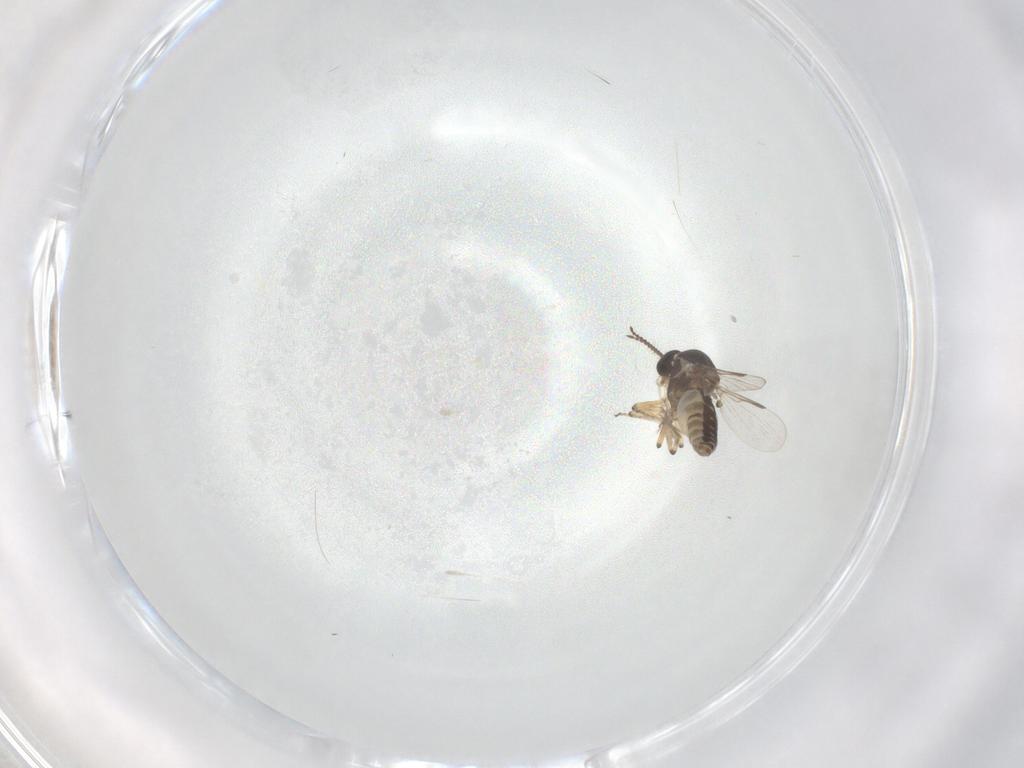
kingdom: Animalia
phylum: Arthropoda
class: Insecta
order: Diptera
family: Ceratopogonidae
